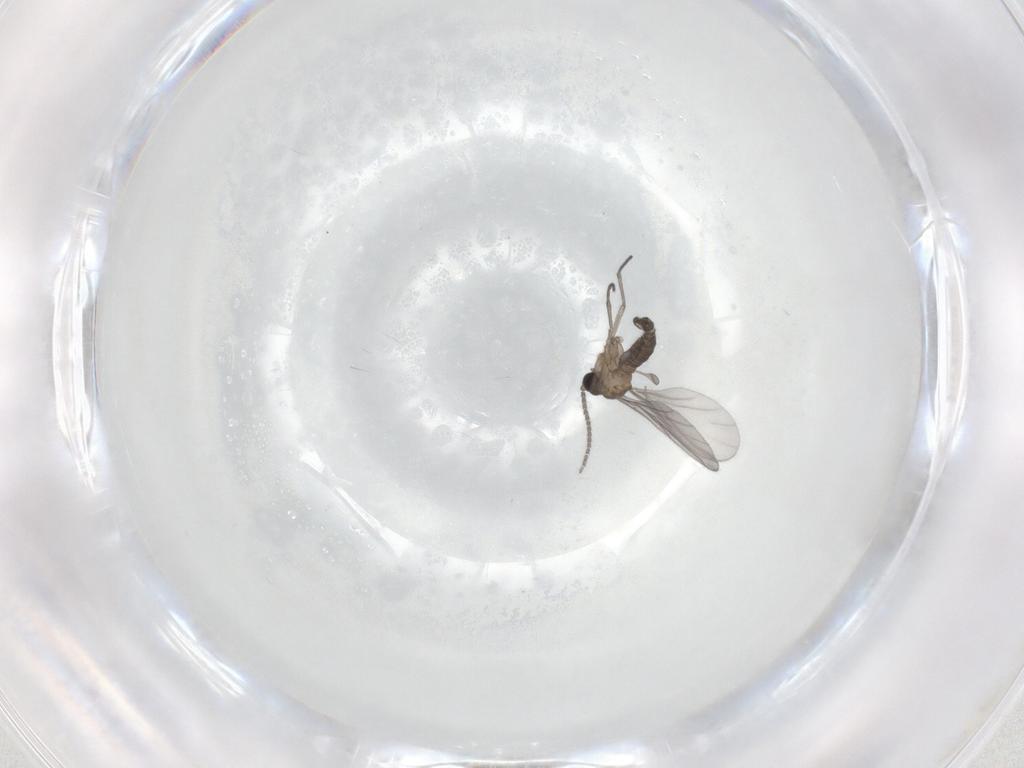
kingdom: Animalia
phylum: Arthropoda
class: Insecta
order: Diptera
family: Sciaridae
